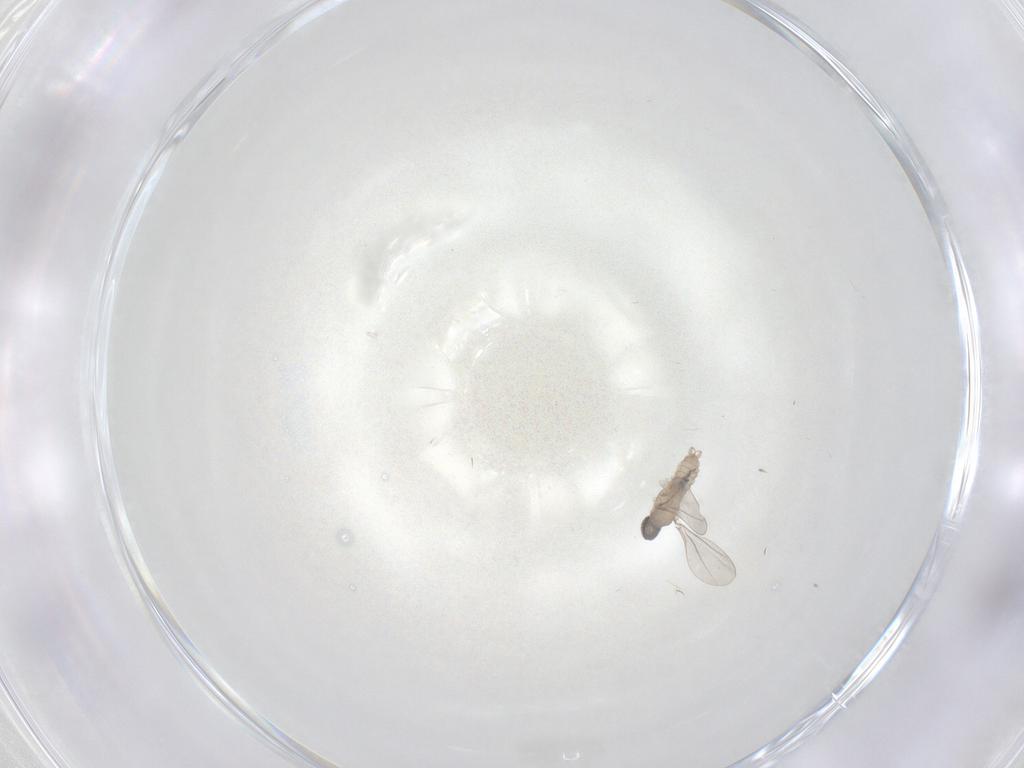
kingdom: Animalia
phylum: Arthropoda
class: Insecta
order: Diptera
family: Cecidomyiidae
